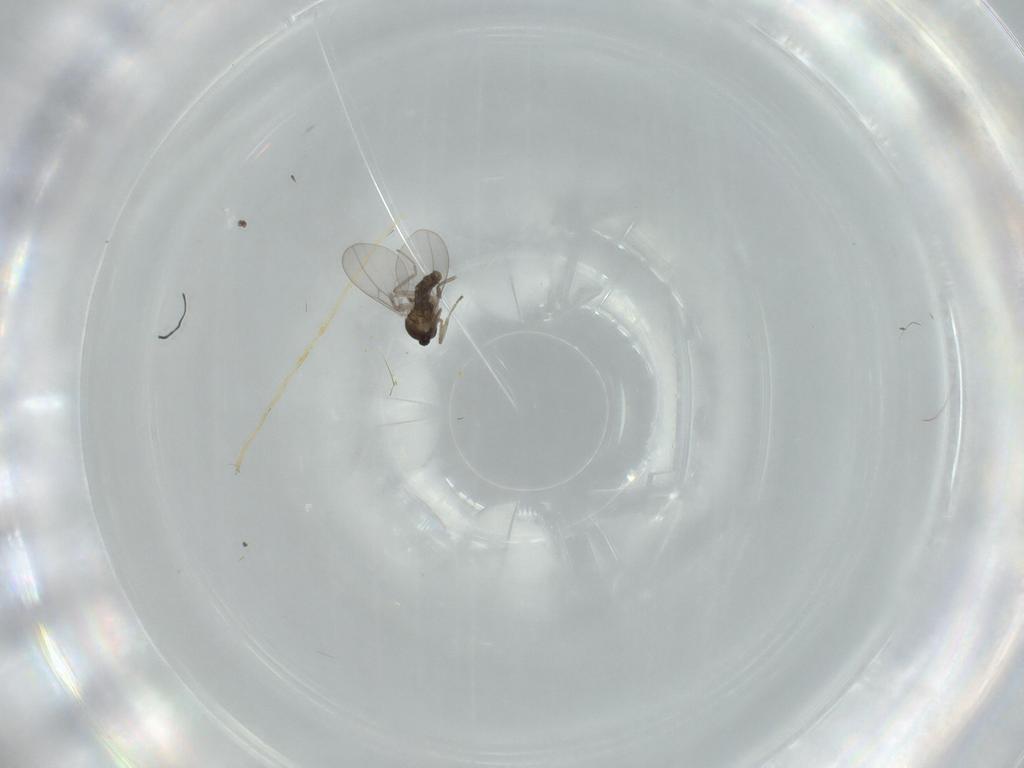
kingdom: Animalia
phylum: Arthropoda
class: Insecta
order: Diptera
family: Cecidomyiidae
